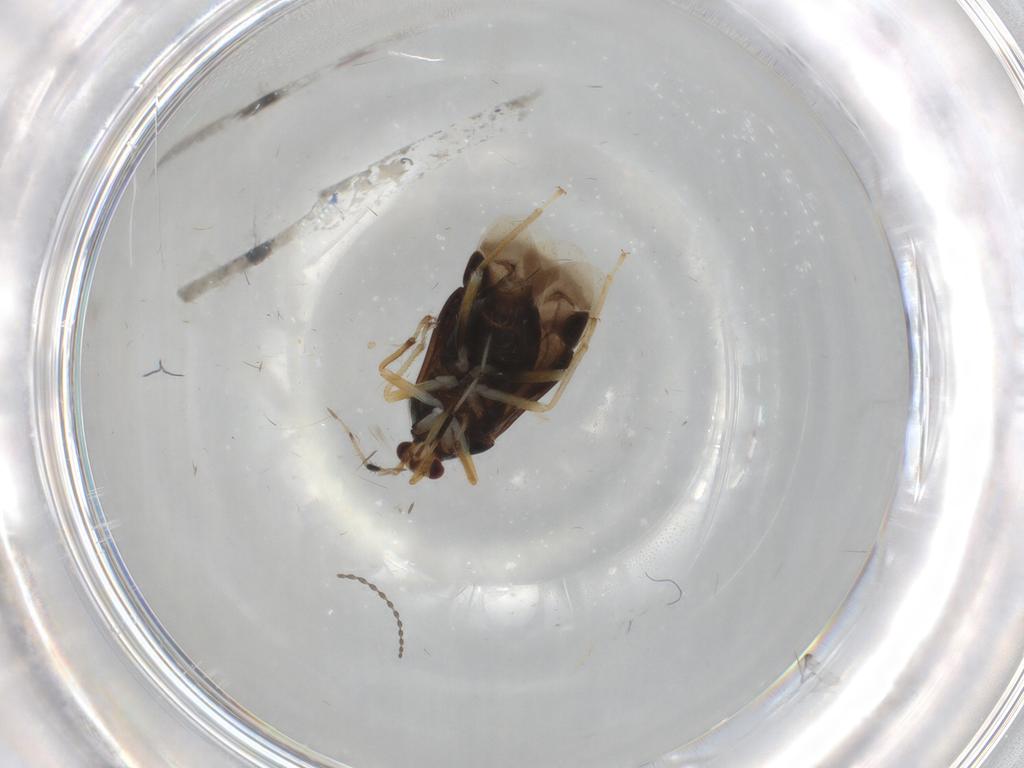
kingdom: Animalia
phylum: Arthropoda
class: Insecta
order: Hemiptera
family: Miridae
